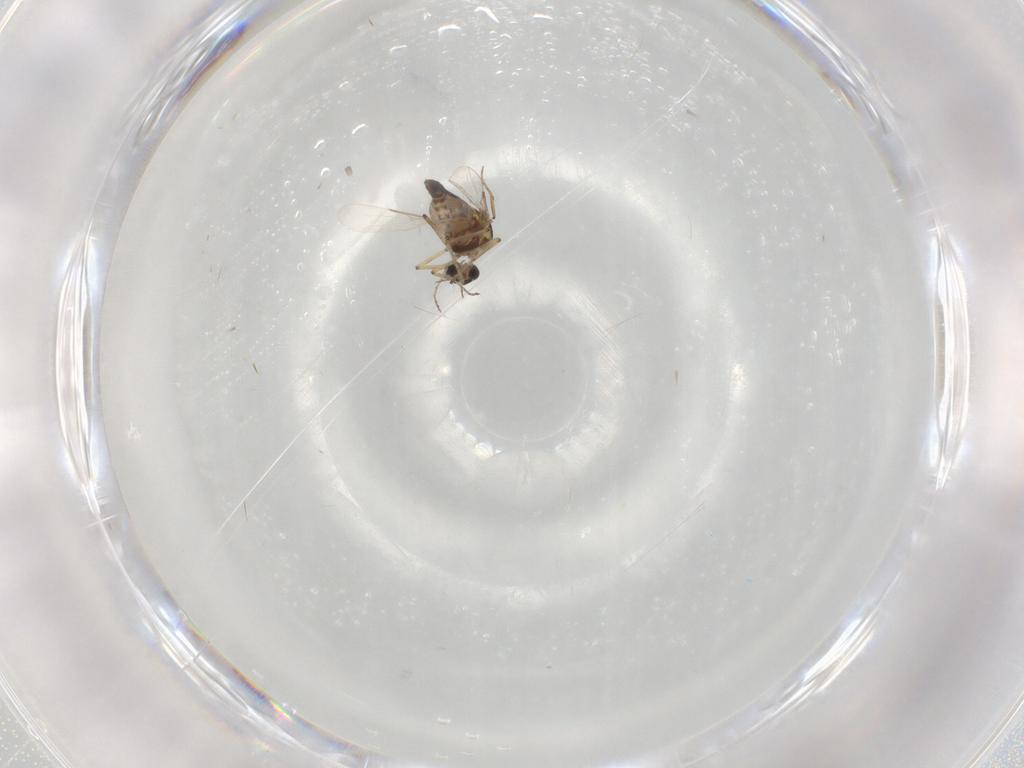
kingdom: Animalia
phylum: Arthropoda
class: Insecta
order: Diptera
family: Ceratopogonidae
